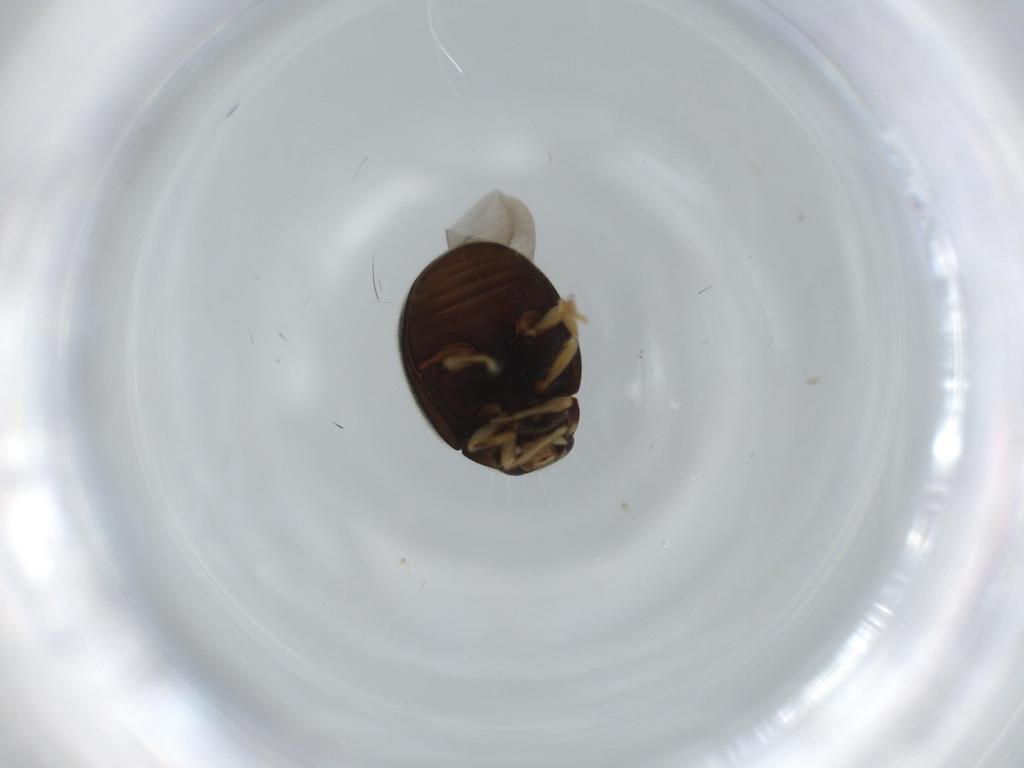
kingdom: Animalia
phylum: Arthropoda
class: Insecta
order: Coleoptera
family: Coccinellidae
